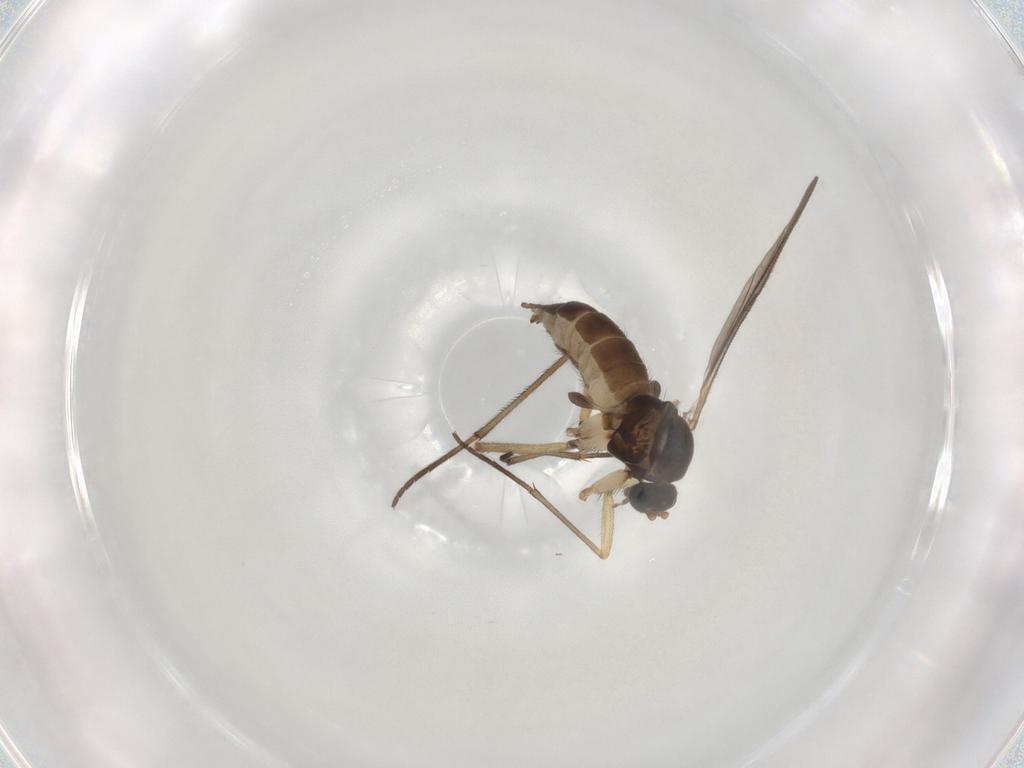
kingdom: Animalia
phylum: Arthropoda
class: Insecta
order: Diptera
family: Sciaridae
